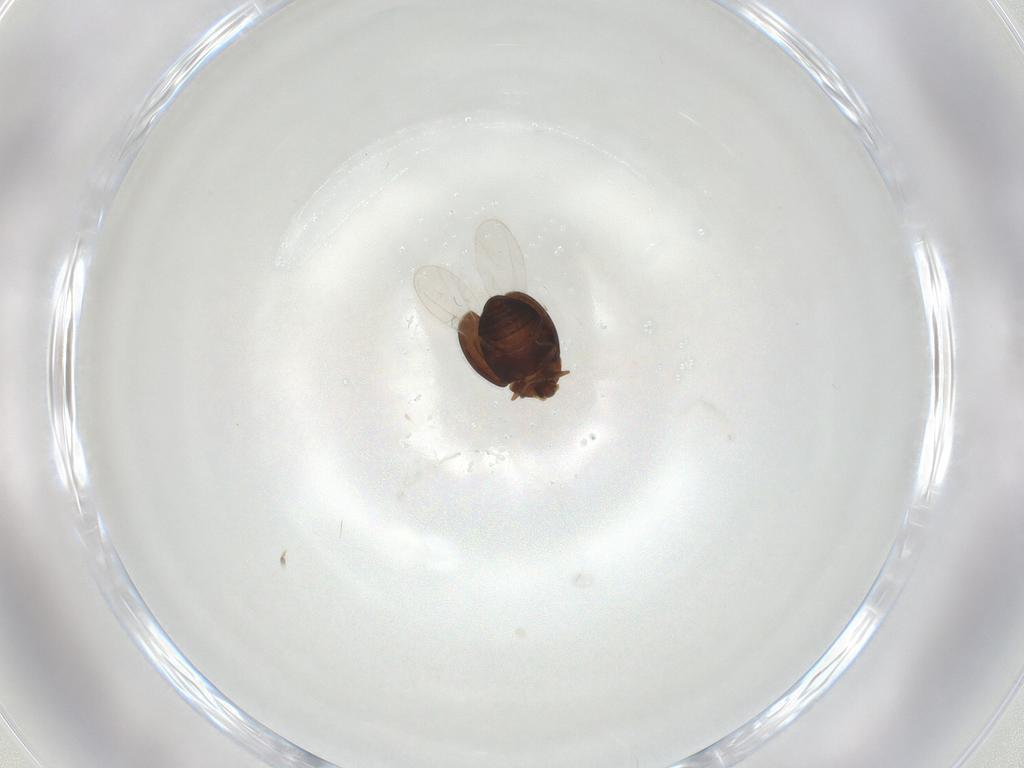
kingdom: Animalia
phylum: Arthropoda
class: Insecta
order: Coleoptera
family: Corylophidae
